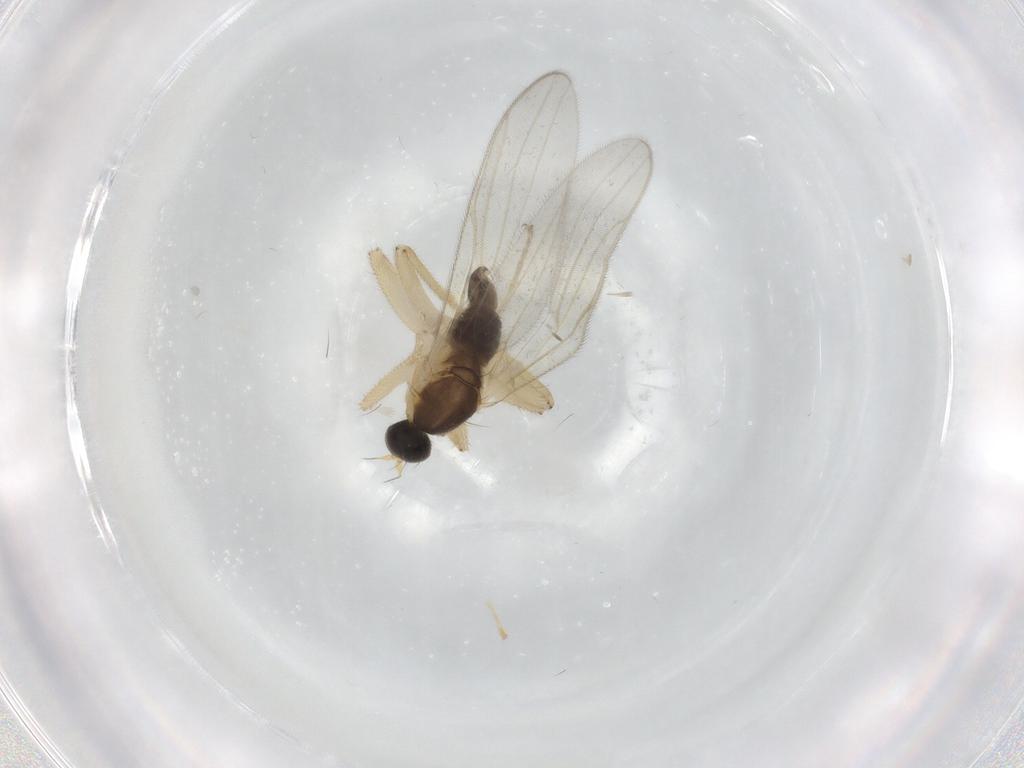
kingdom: Animalia
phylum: Arthropoda
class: Insecta
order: Diptera
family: Hybotidae
